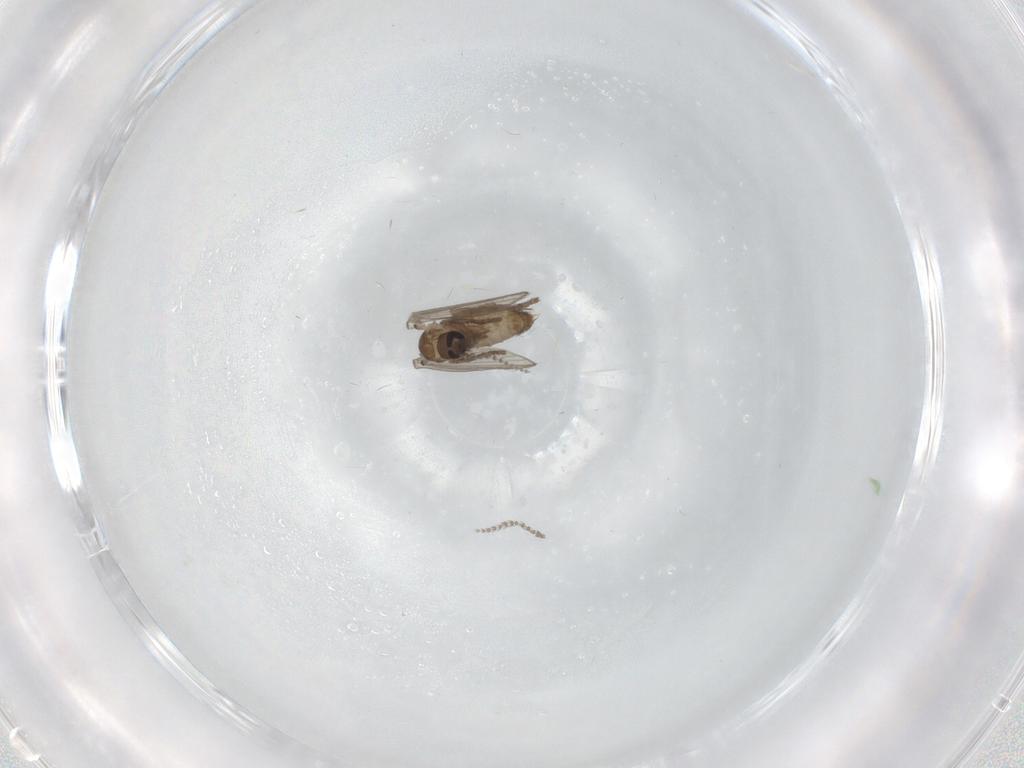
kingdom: Animalia
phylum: Arthropoda
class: Insecta
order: Diptera
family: Psychodidae
